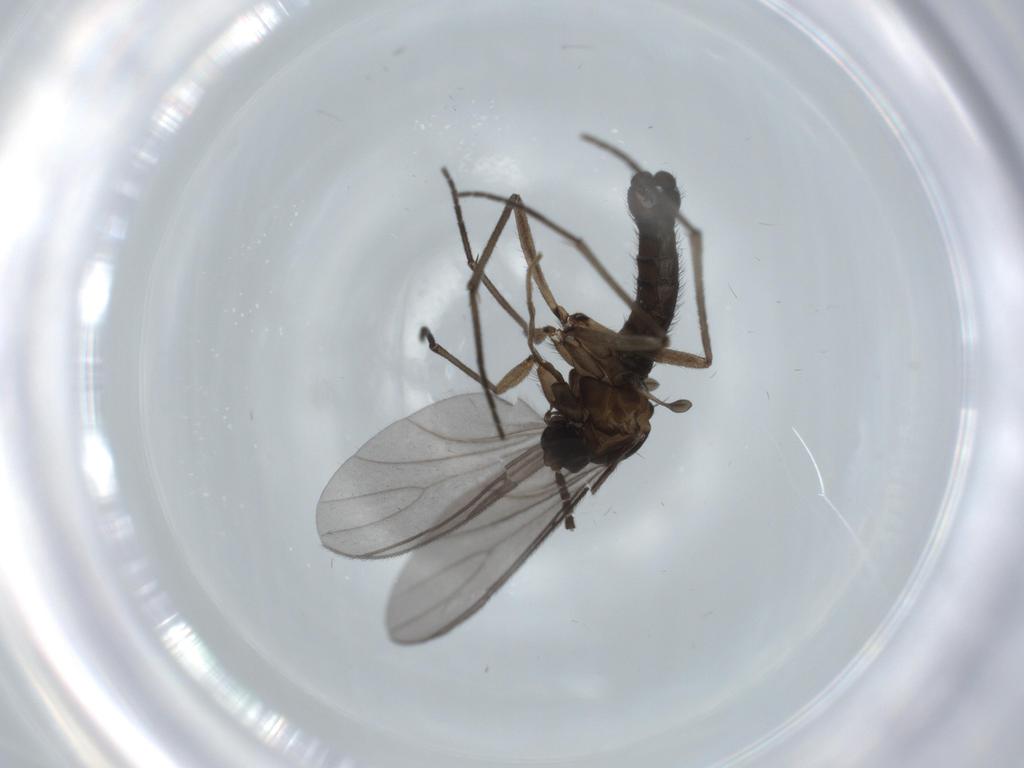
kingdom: Animalia
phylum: Arthropoda
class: Insecta
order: Diptera
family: Sciaridae
